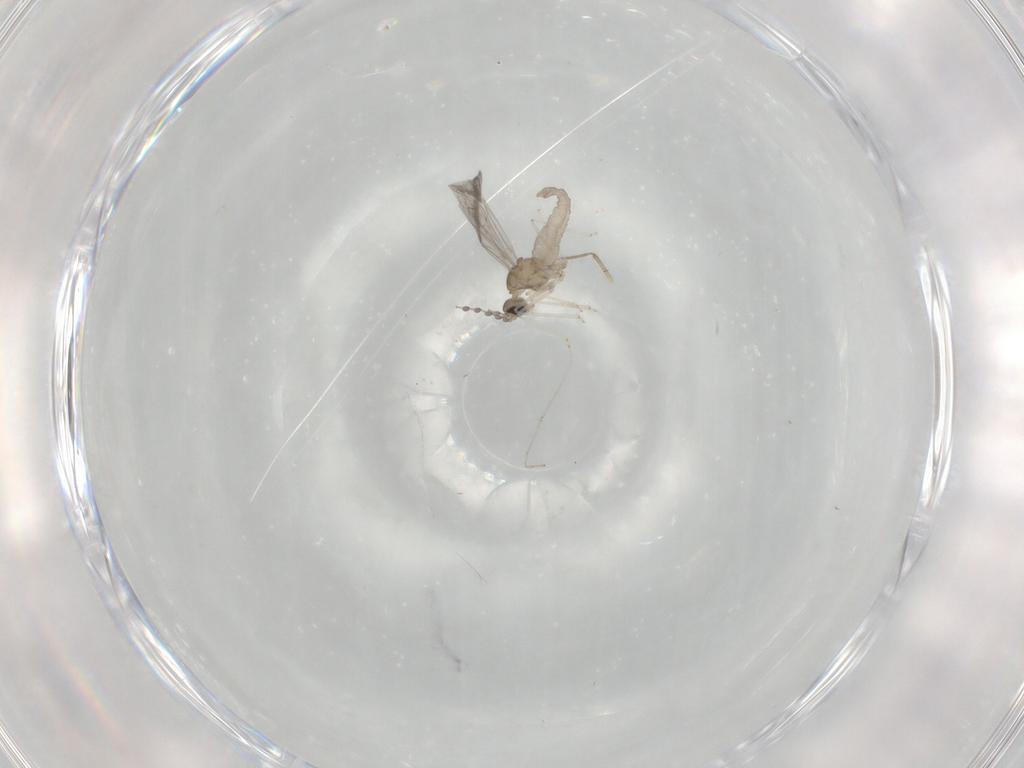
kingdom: Animalia
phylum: Arthropoda
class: Insecta
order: Diptera
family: Cecidomyiidae
